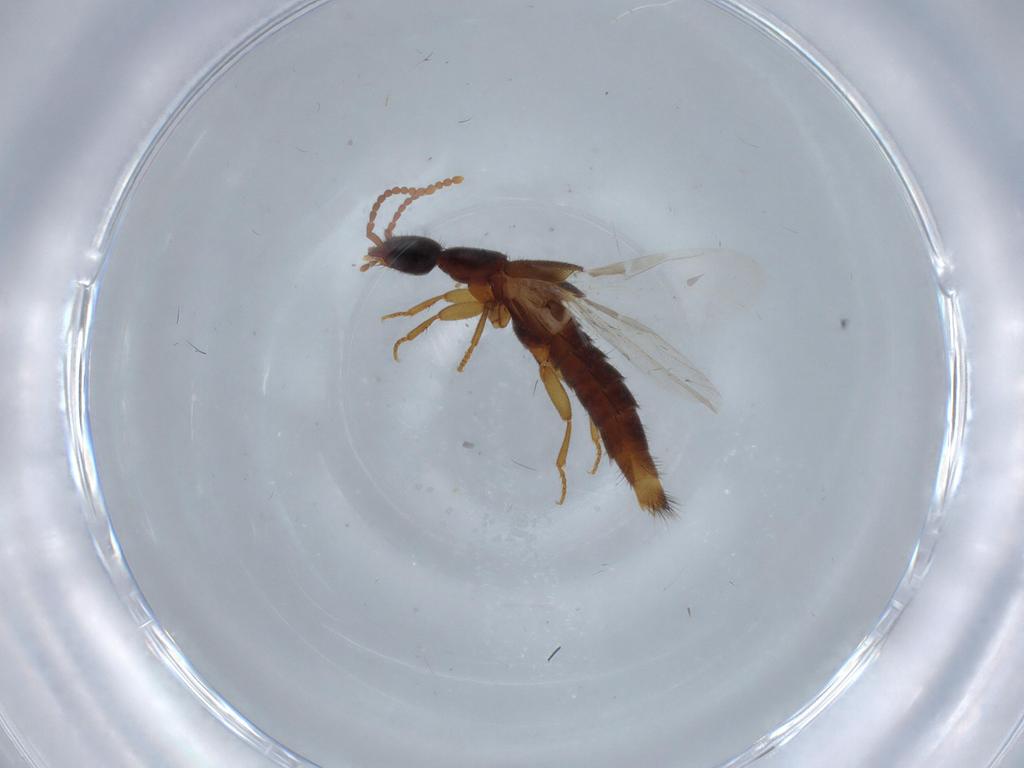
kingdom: Animalia
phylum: Arthropoda
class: Insecta
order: Coleoptera
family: Staphylinidae
